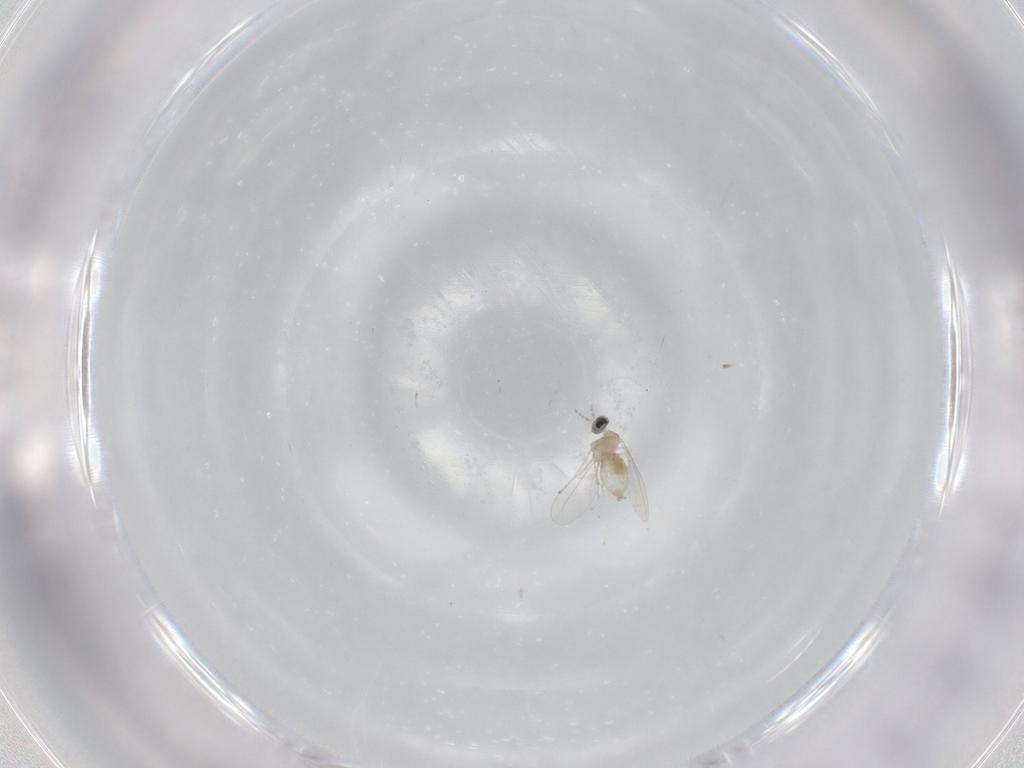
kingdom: Animalia
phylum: Arthropoda
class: Insecta
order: Diptera
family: Cecidomyiidae
